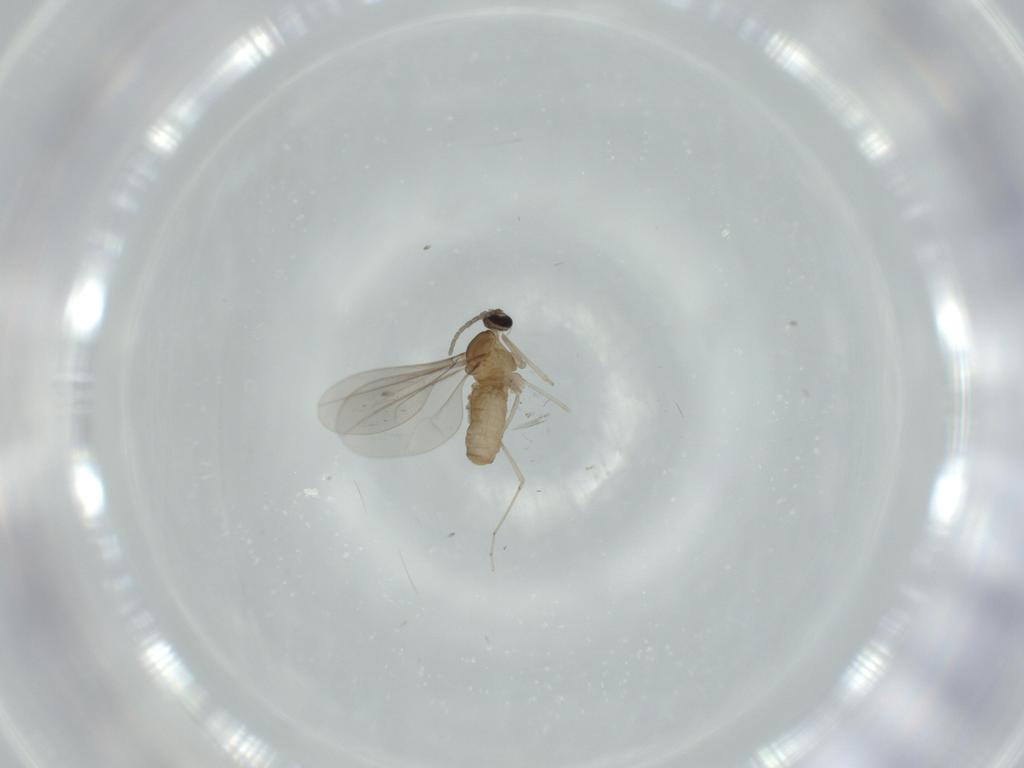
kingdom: Animalia
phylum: Arthropoda
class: Insecta
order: Diptera
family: Cecidomyiidae
